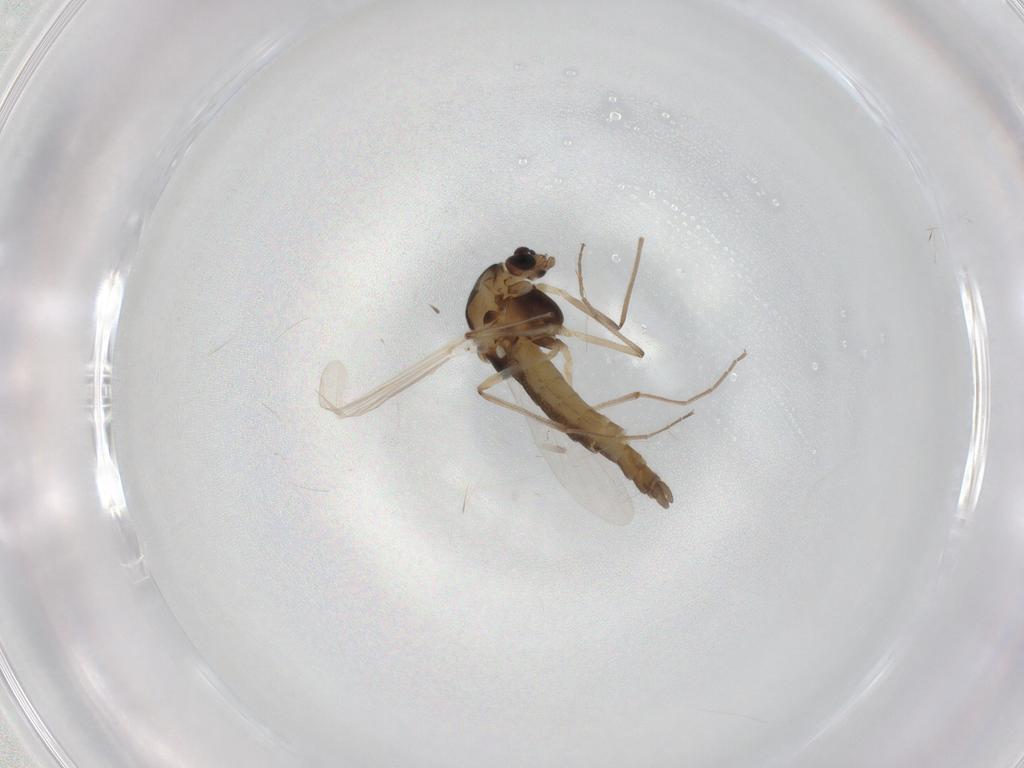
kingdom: Animalia
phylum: Arthropoda
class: Insecta
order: Diptera
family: Chironomidae
